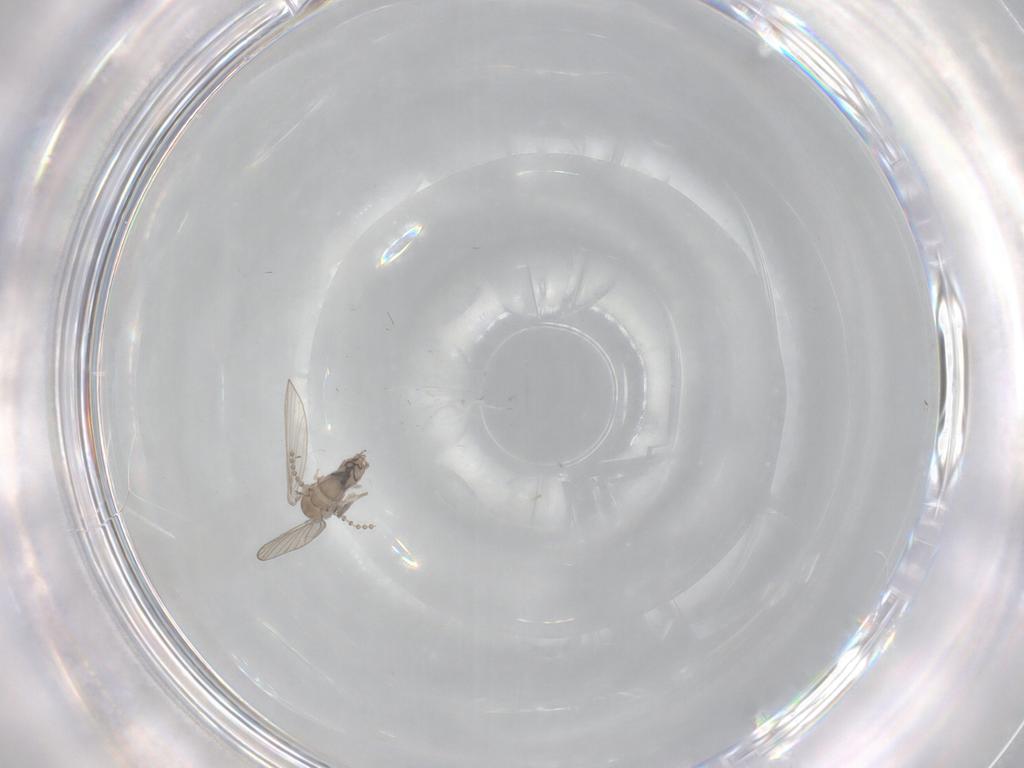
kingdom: Animalia
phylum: Arthropoda
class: Insecta
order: Diptera
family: Psychodidae
